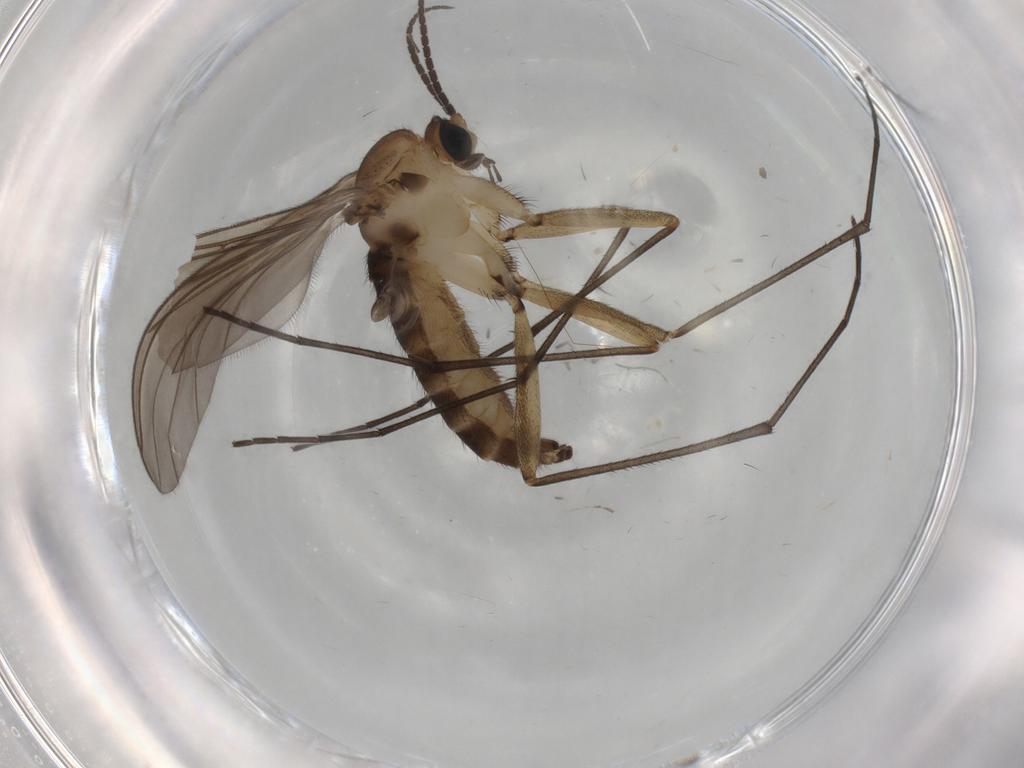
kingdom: Animalia
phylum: Arthropoda
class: Insecta
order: Diptera
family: Sciaridae
